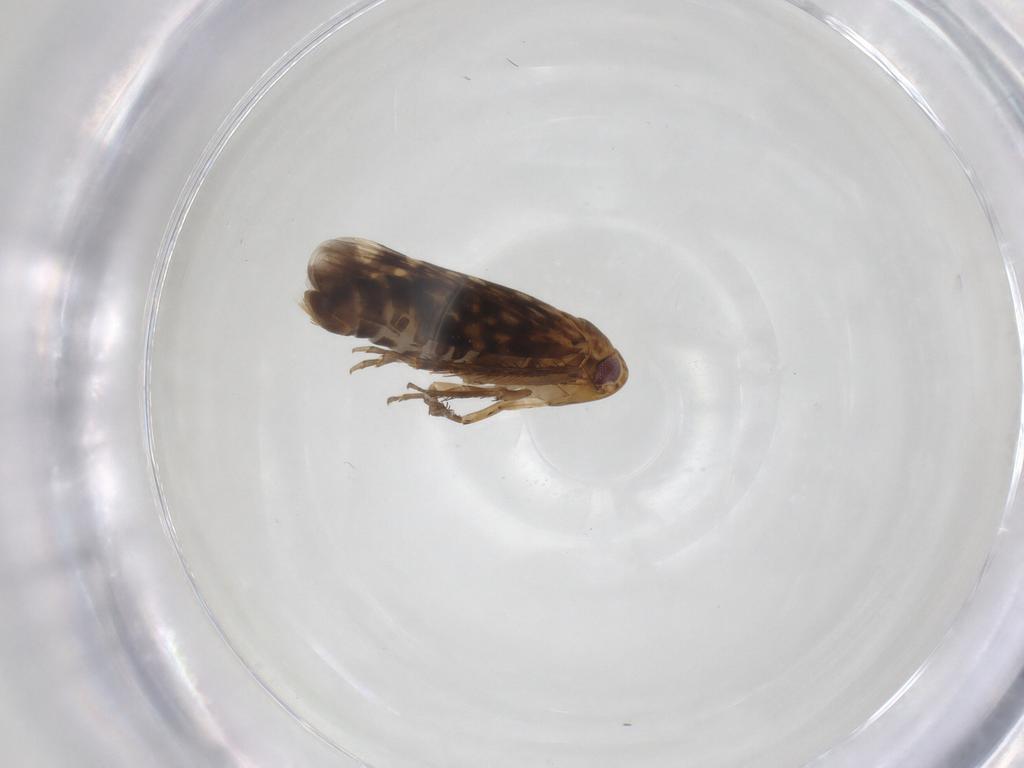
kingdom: Animalia
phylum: Arthropoda
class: Insecta
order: Hemiptera
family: Cicadellidae
